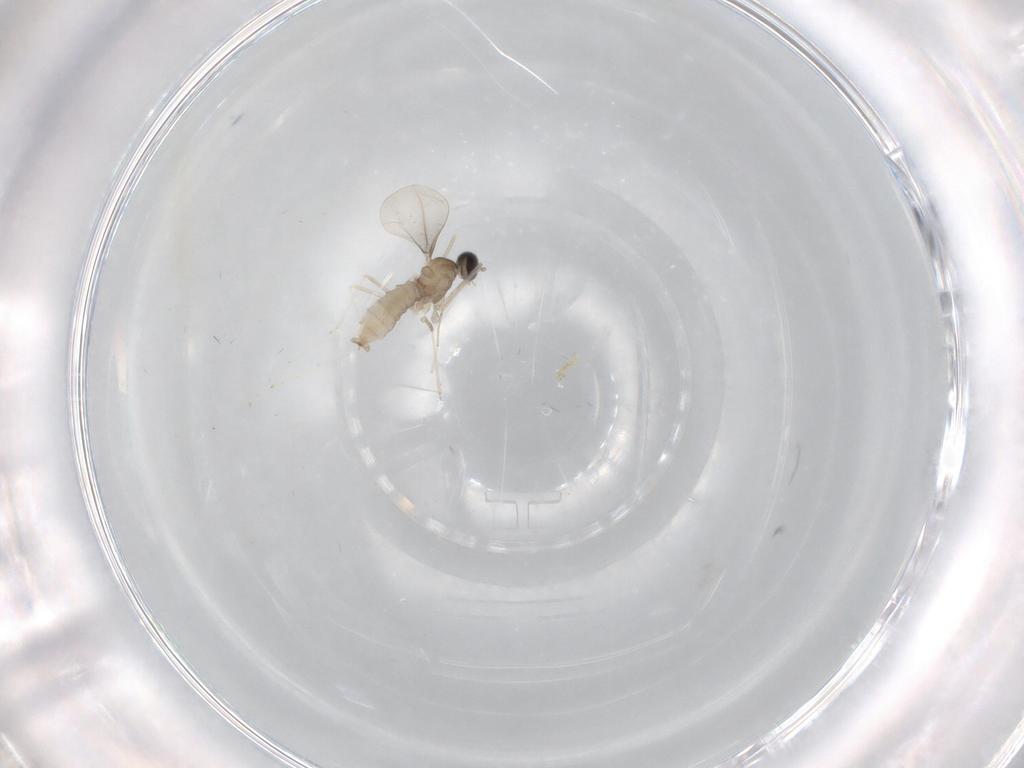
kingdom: Animalia
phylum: Arthropoda
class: Insecta
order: Diptera
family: Cecidomyiidae
